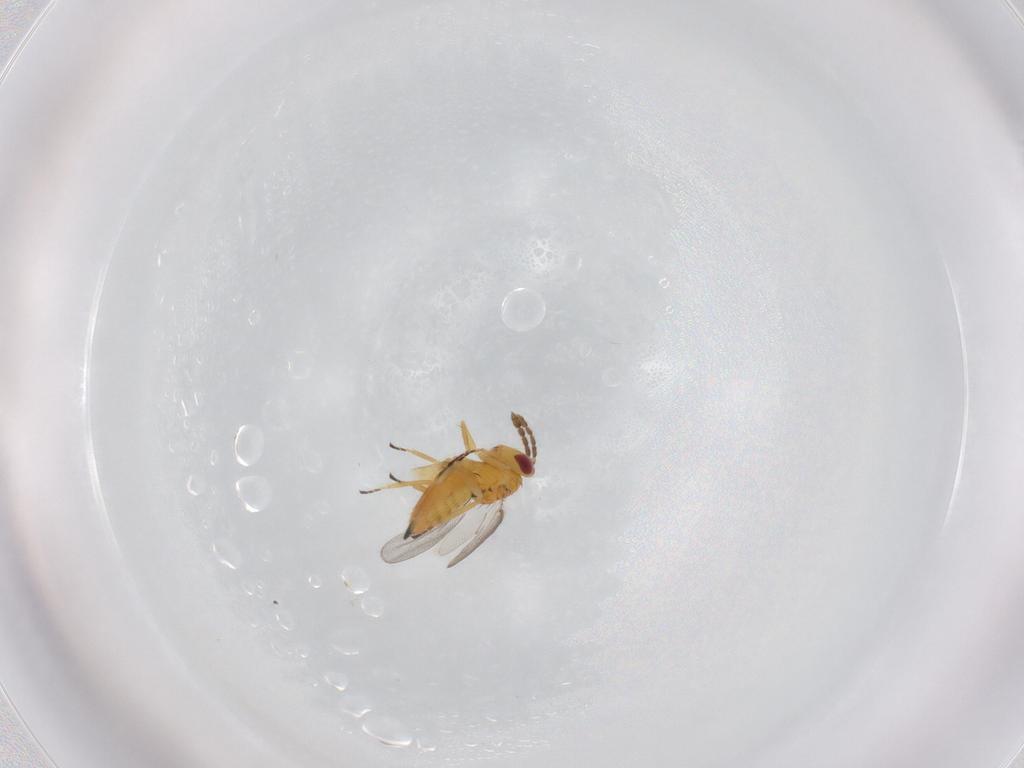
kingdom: Animalia
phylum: Arthropoda
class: Insecta
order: Hymenoptera
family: Eulophidae
